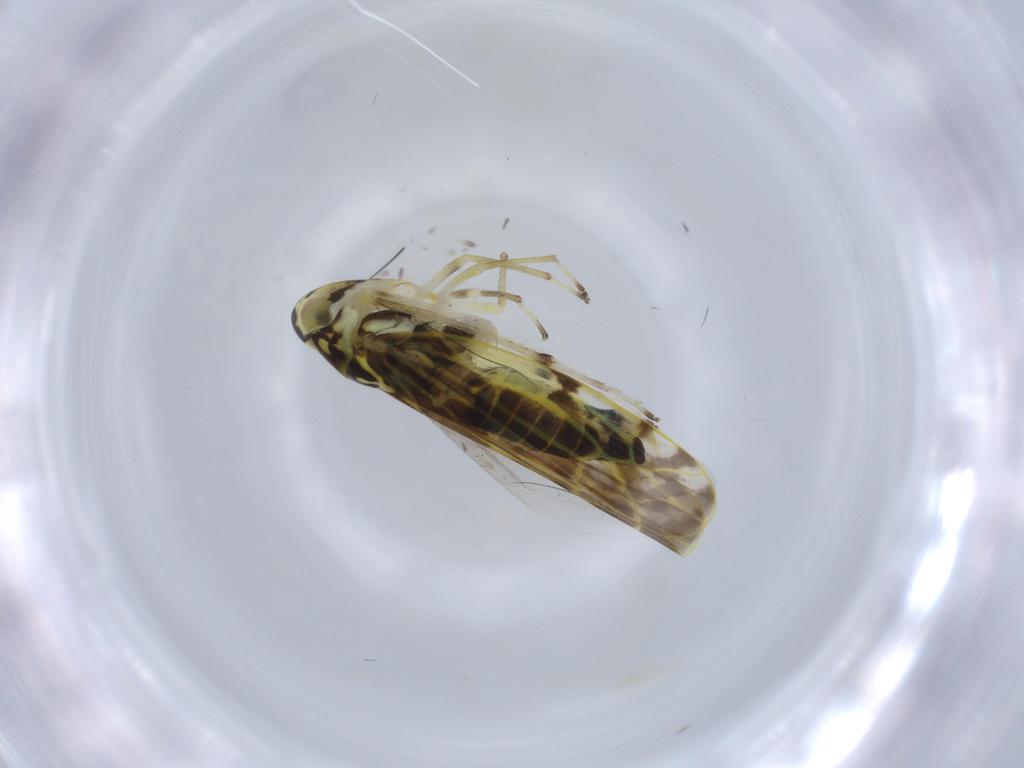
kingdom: Animalia
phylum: Arthropoda
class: Insecta
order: Hemiptera
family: Cicadellidae
